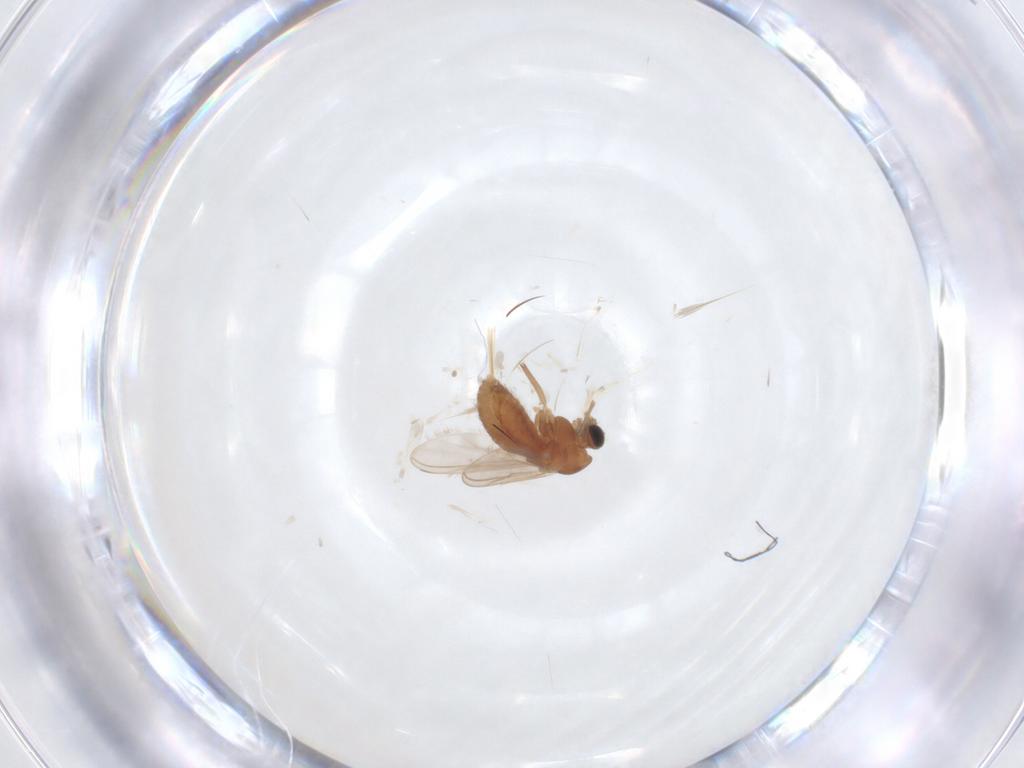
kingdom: Animalia
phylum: Arthropoda
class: Insecta
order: Diptera
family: Chironomidae
